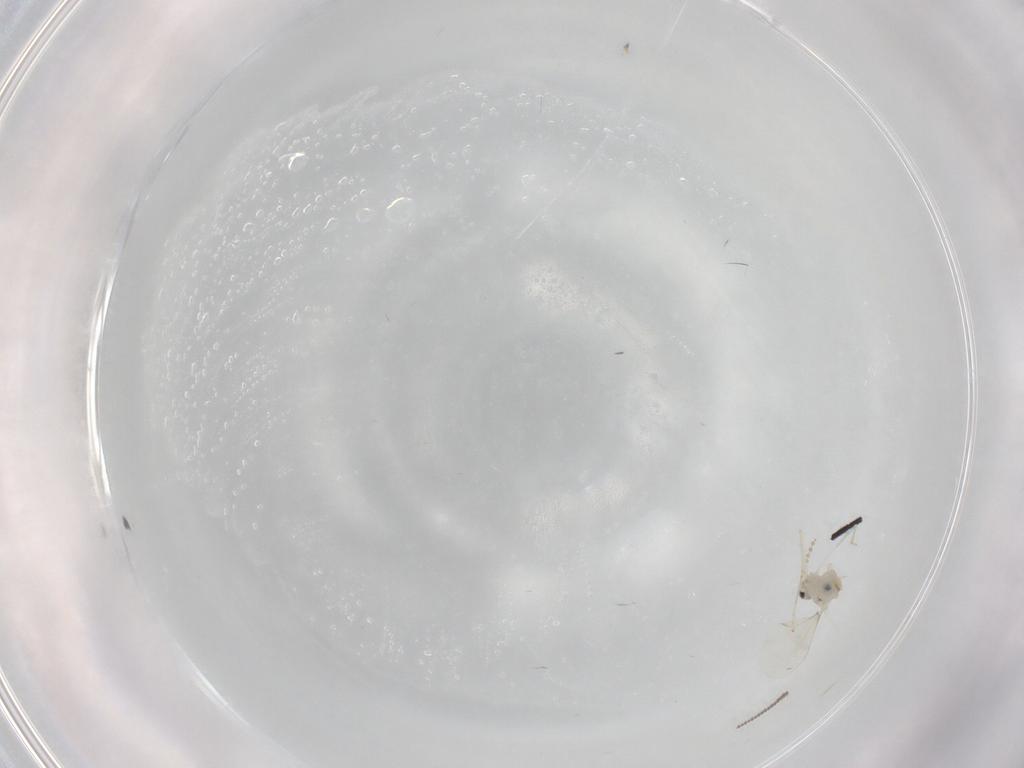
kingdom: Animalia
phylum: Arthropoda
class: Insecta
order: Diptera
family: Cecidomyiidae
